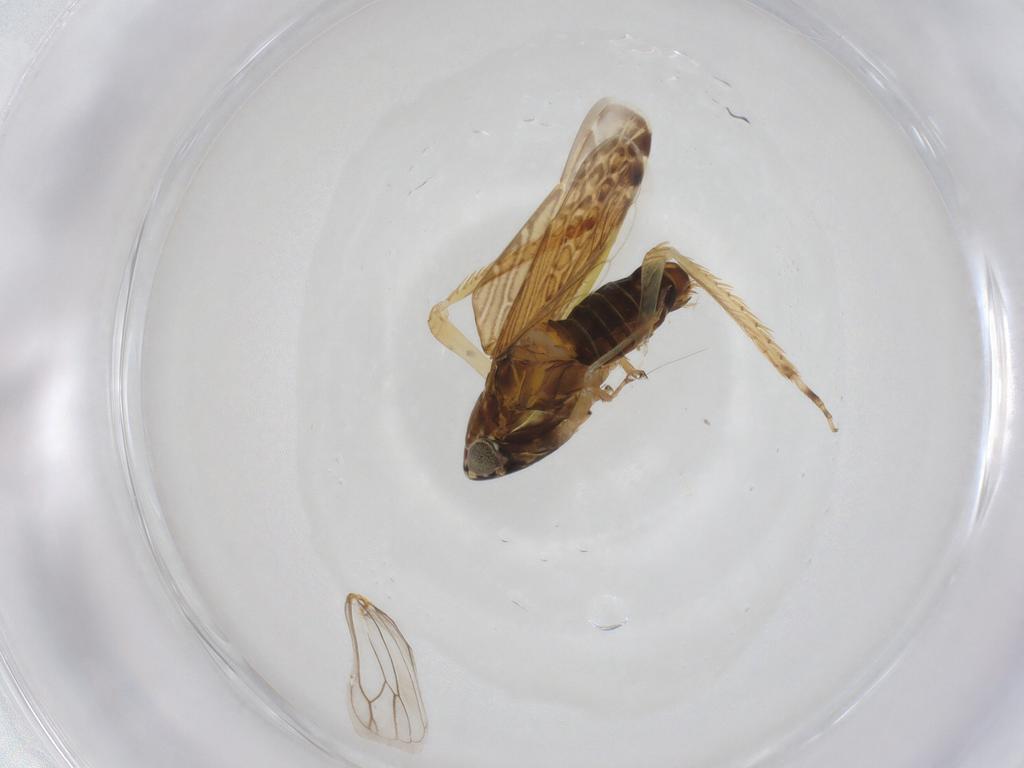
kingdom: Animalia
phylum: Arthropoda
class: Insecta
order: Hemiptera
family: Cicadellidae
